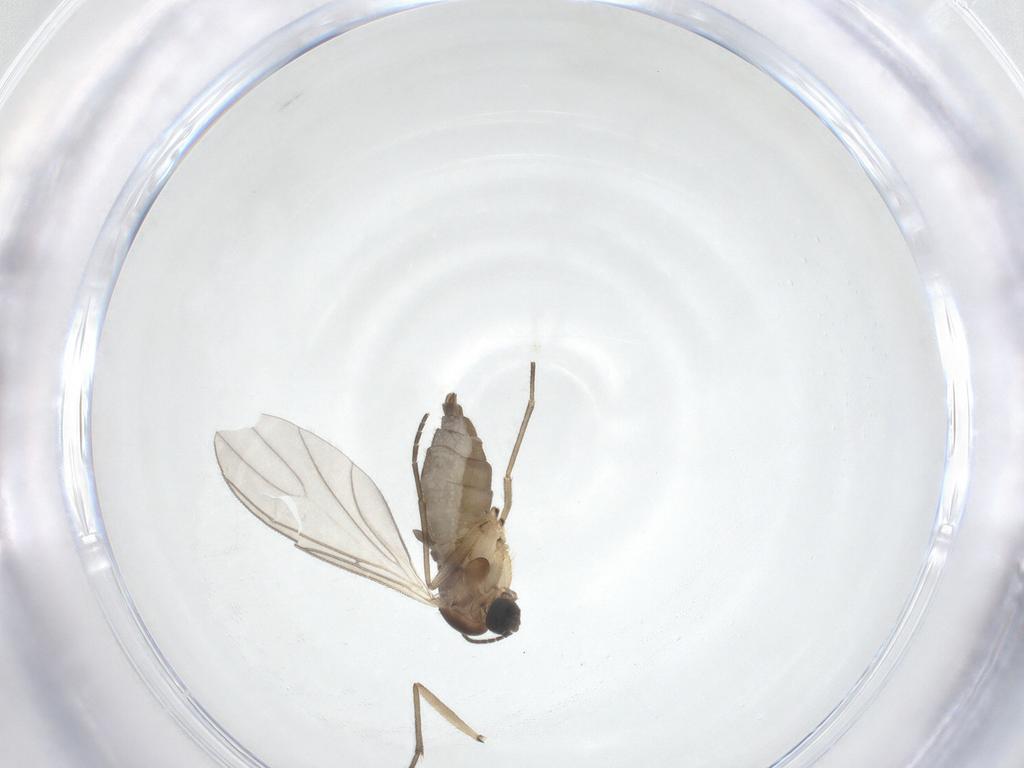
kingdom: Animalia
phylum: Arthropoda
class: Insecta
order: Diptera
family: Sciaridae
